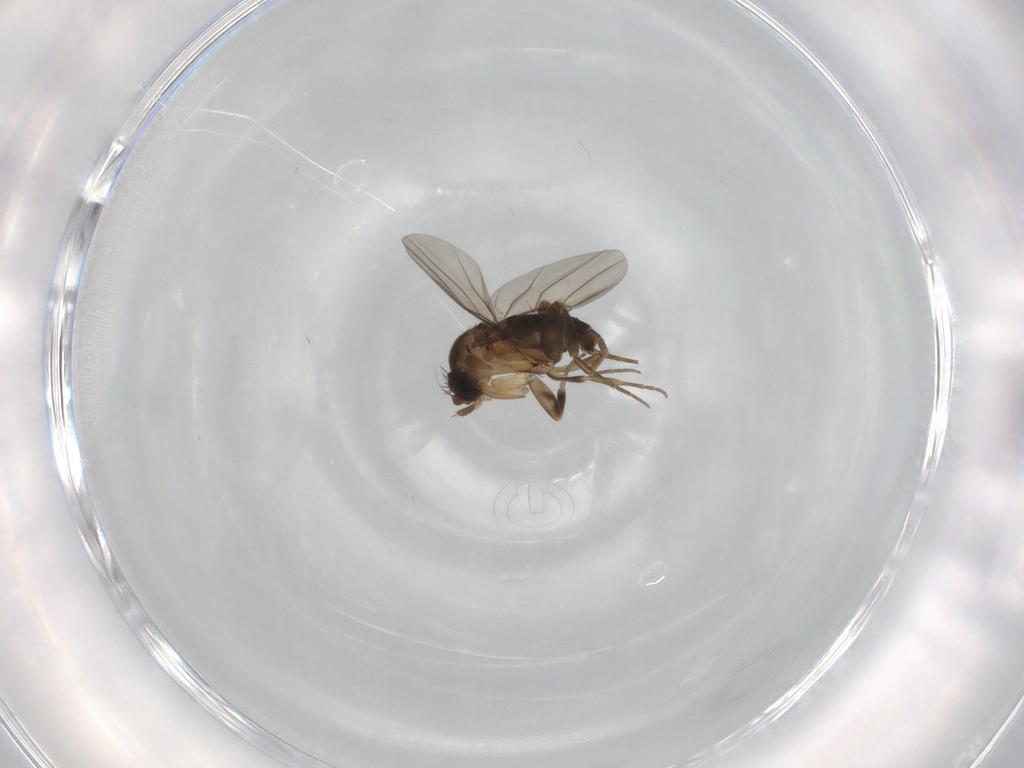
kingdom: Animalia
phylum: Arthropoda
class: Insecta
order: Diptera
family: Phoridae
